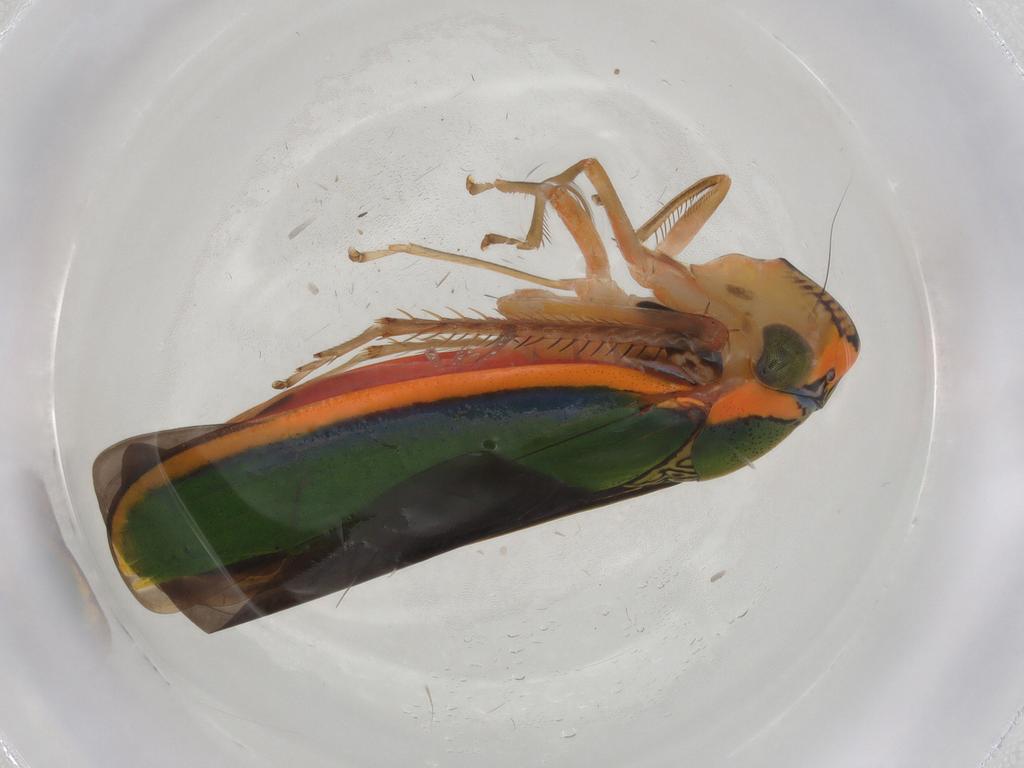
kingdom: Animalia
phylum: Arthropoda
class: Insecta
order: Hemiptera
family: Cicadellidae
